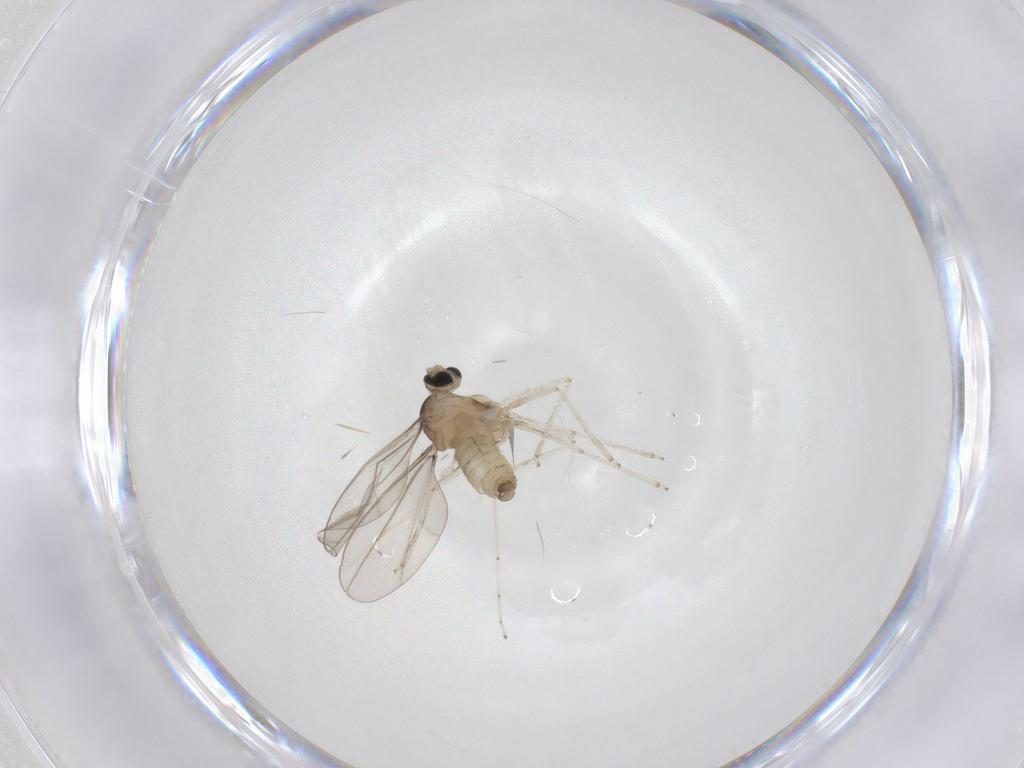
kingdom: Animalia
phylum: Arthropoda
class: Insecta
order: Diptera
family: Cecidomyiidae
